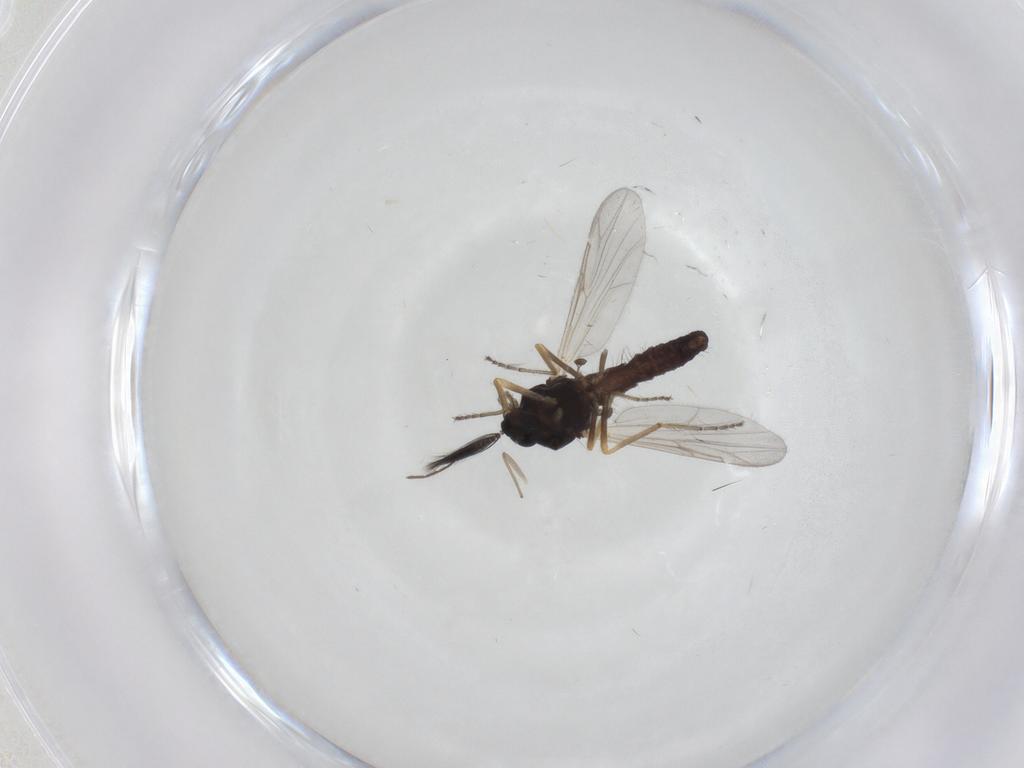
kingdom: Animalia
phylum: Arthropoda
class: Insecta
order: Diptera
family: Ceratopogonidae
